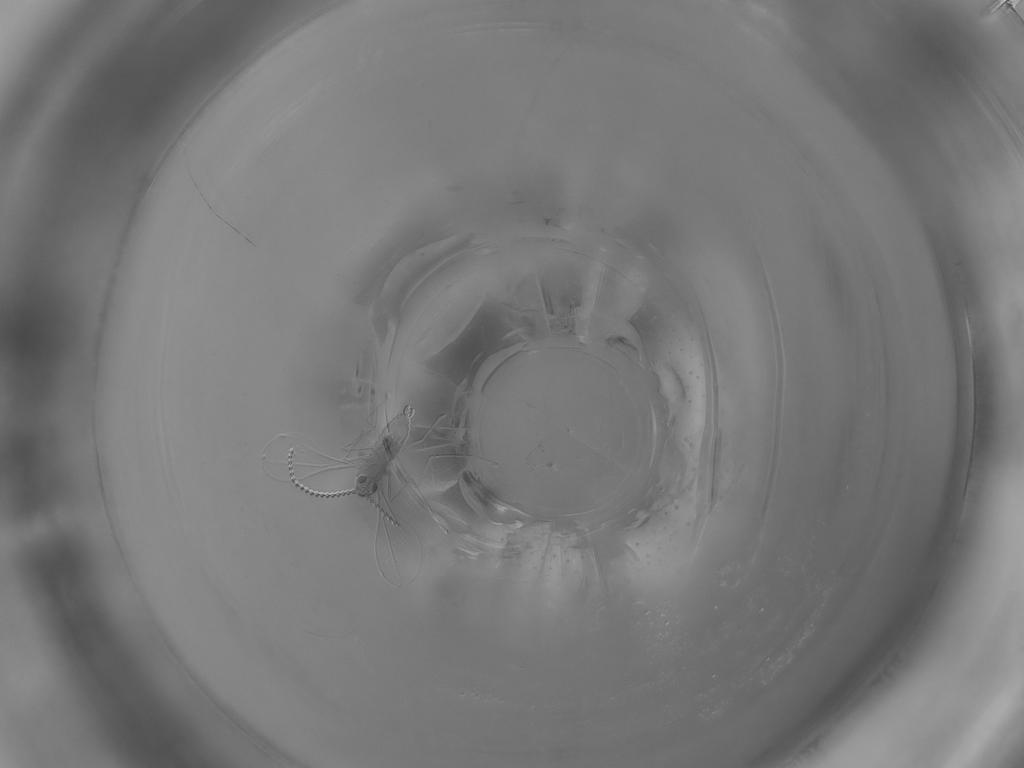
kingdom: Animalia
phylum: Arthropoda
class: Insecta
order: Diptera
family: Cecidomyiidae
